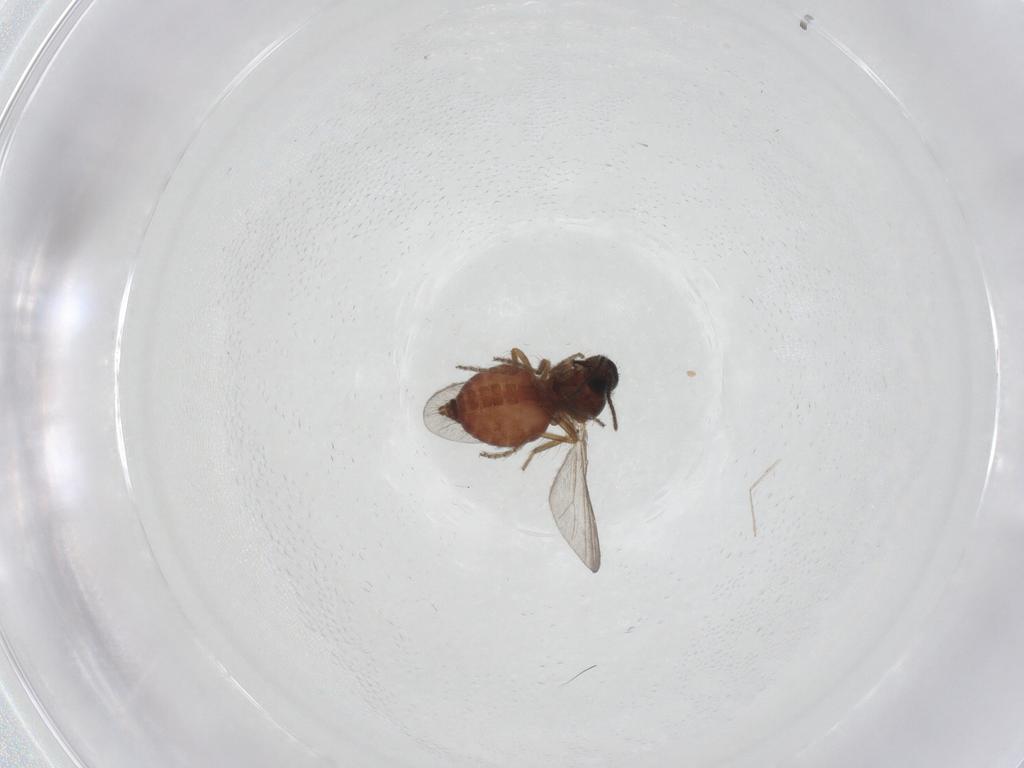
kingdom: Animalia
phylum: Arthropoda
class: Insecta
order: Diptera
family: Ceratopogonidae
